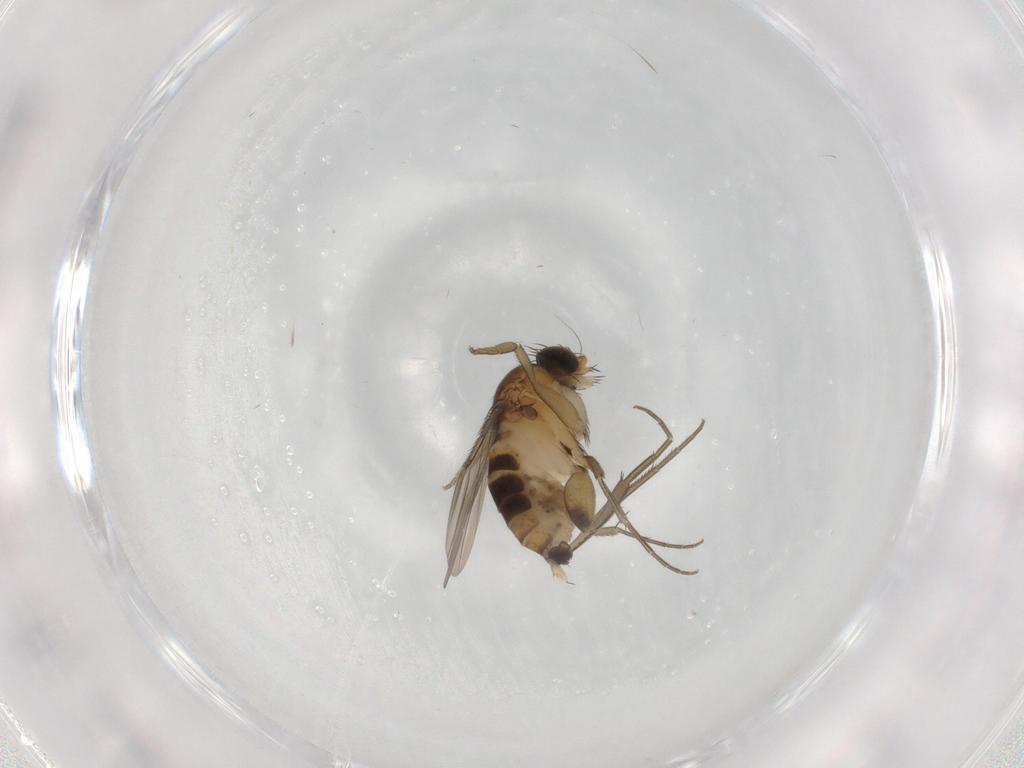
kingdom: Animalia
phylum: Arthropoda
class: Insecta
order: Diptera
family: Phoridae
